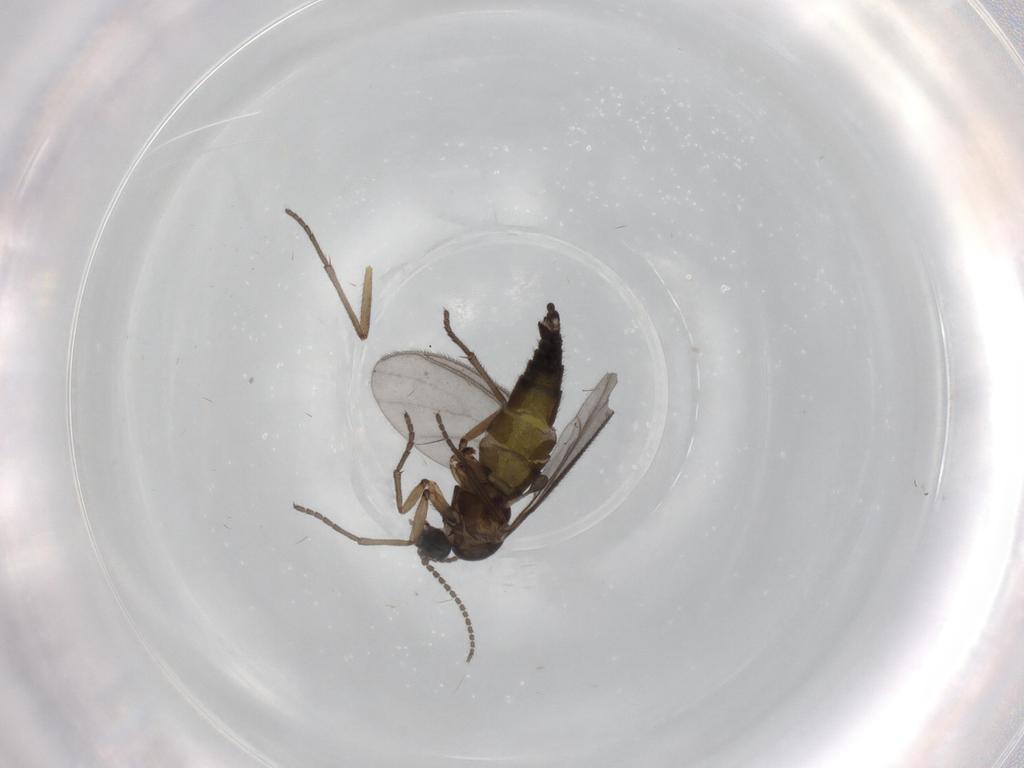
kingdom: Animalia
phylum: Arthropoda
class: Insecta
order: Diptera
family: Sciaridae
